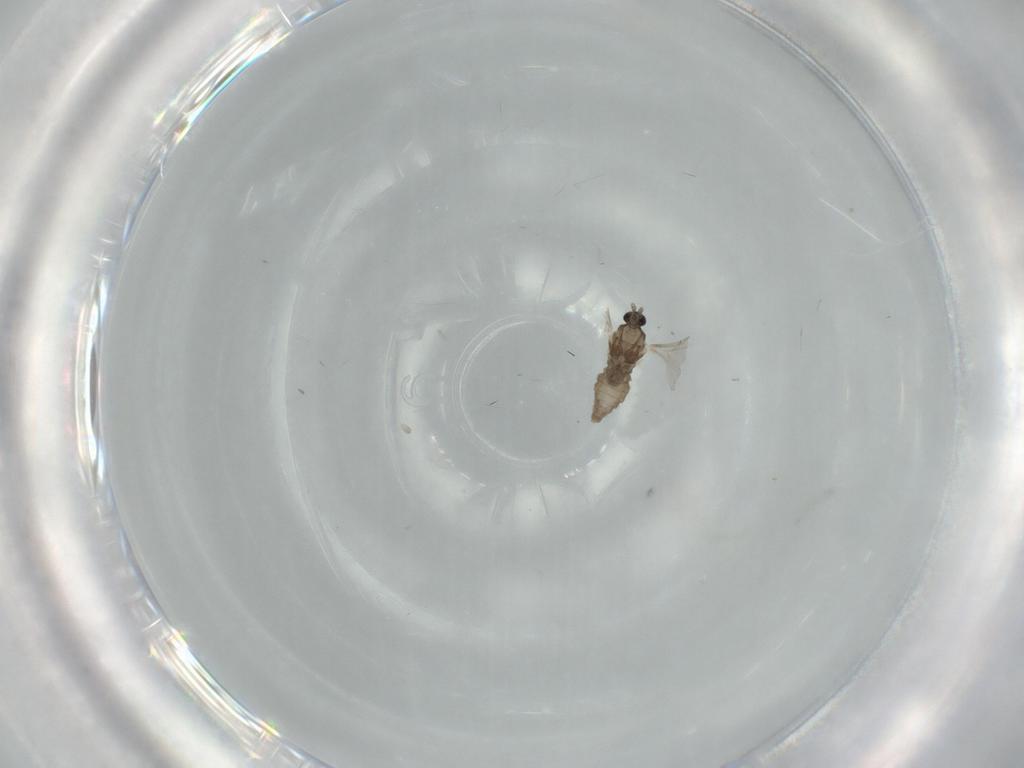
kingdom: Animalia
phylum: Arthropoda
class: Insecta
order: Diptera
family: Cecidomyiidae
